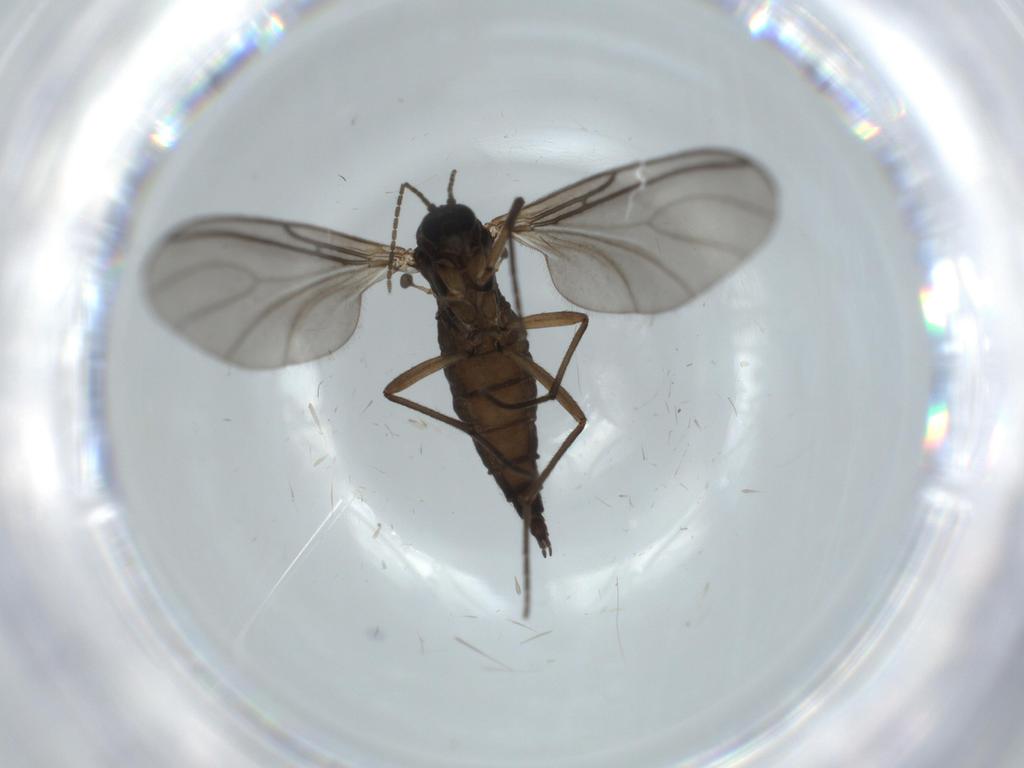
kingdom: Animalia
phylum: Arthropoda
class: Insecta
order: Diptera
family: Sciaridae
